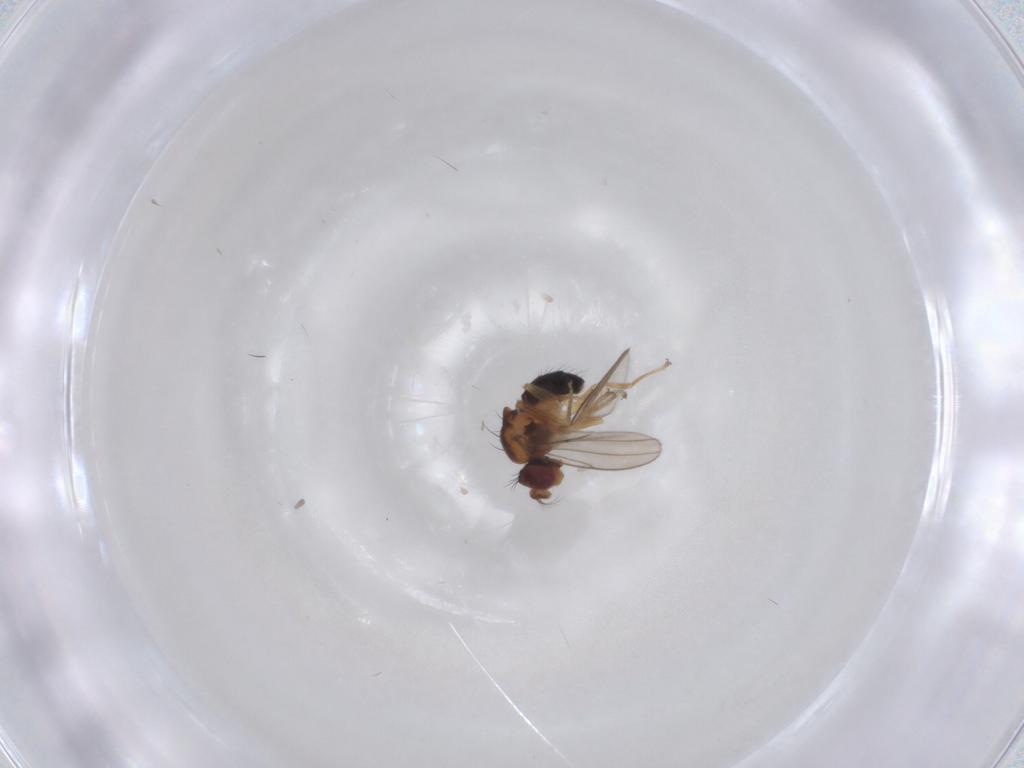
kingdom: Animalia
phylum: Arthropoda
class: Insecta
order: Diptera
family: Ephydridae
